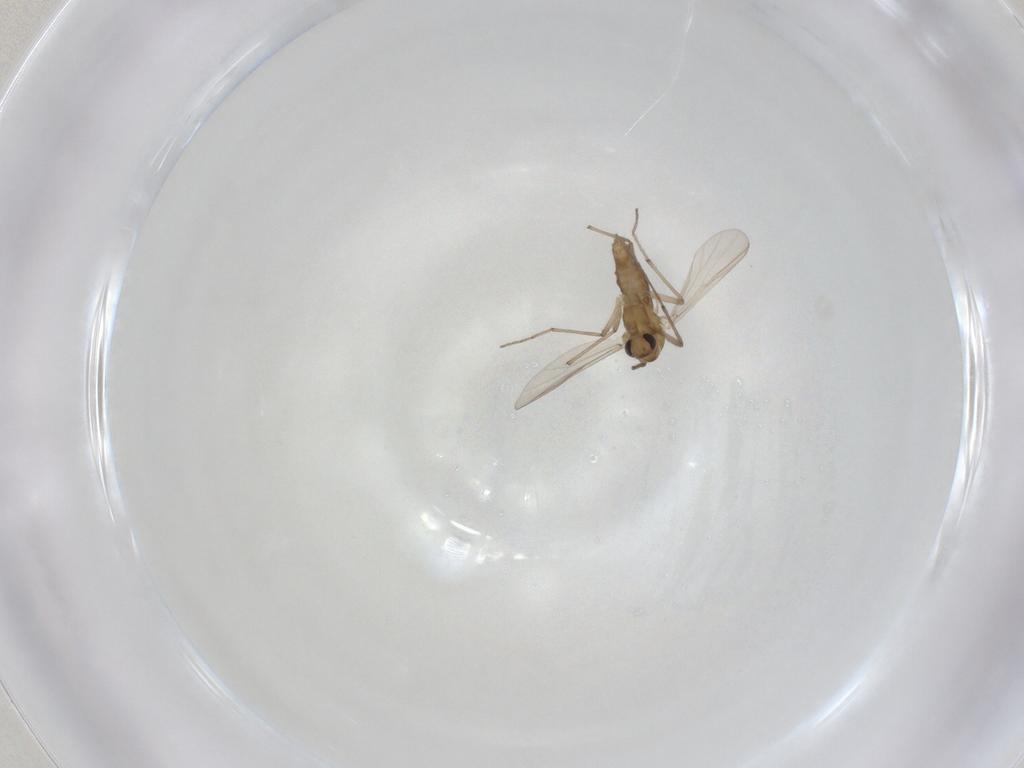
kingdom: Animalia
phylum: Arthropoda
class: Insecta
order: Diptera
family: Chironomidae
